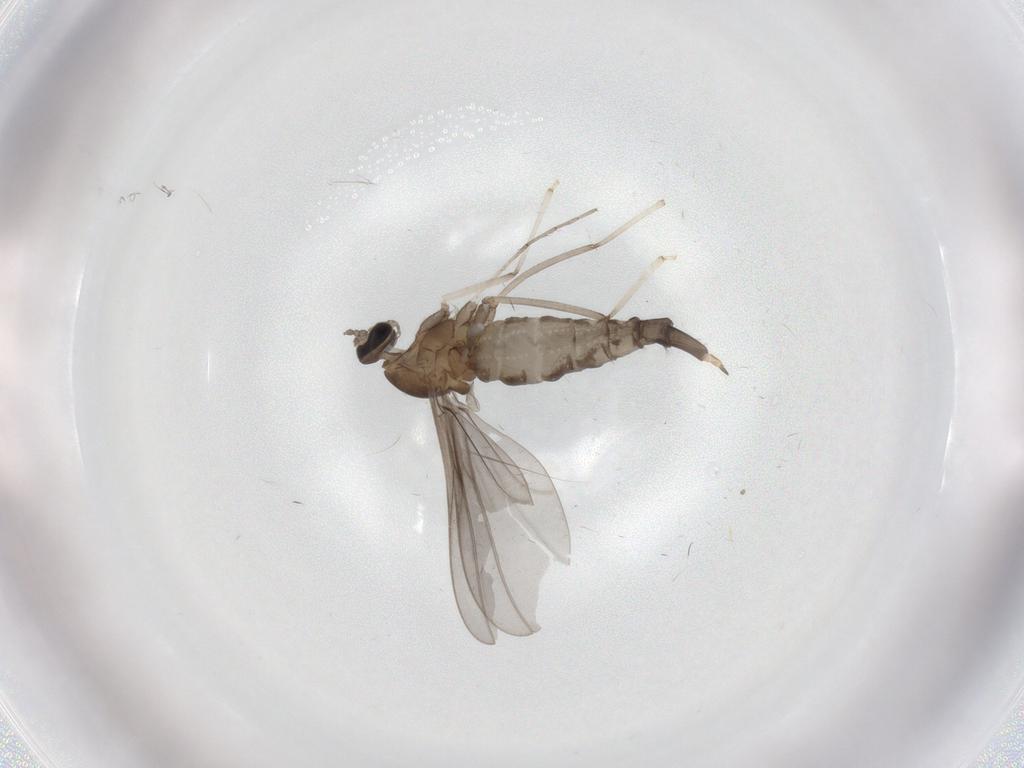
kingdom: Animalia
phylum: Arthropoda
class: Insecta
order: Diptera
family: Cecidomyiidae
